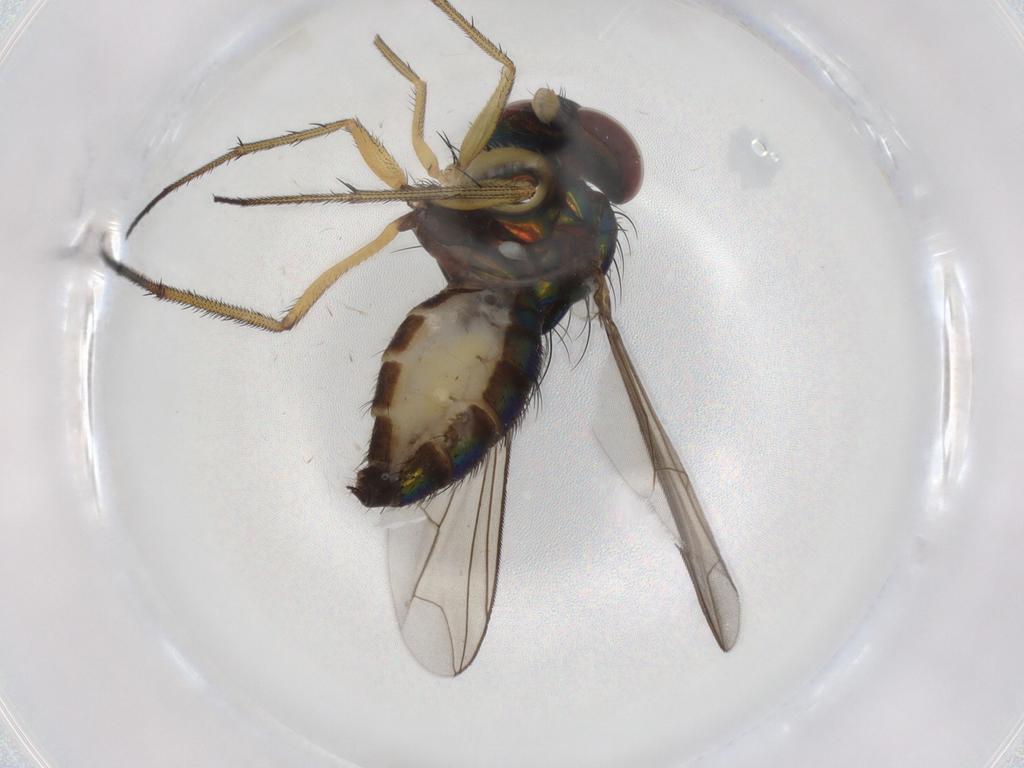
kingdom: Animalia
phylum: Arthropoda
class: Insecta
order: Diptera
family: Dolichopodidae
